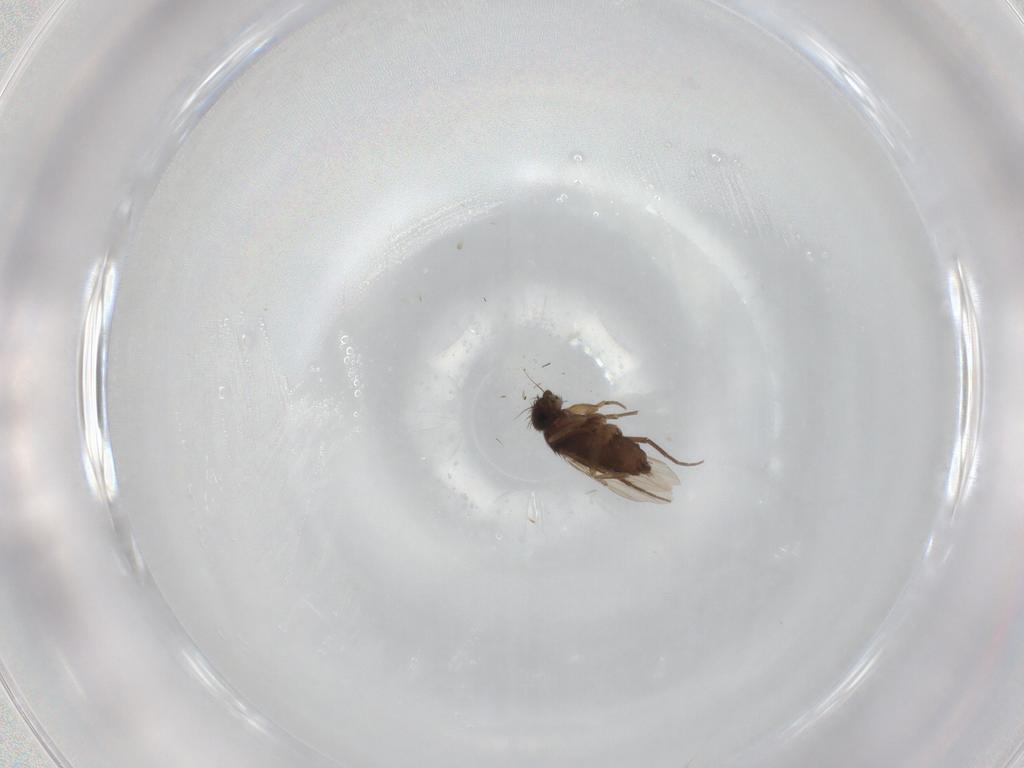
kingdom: Animalia
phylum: Arthropoda
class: Insecta
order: Diptera
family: Phoridae
